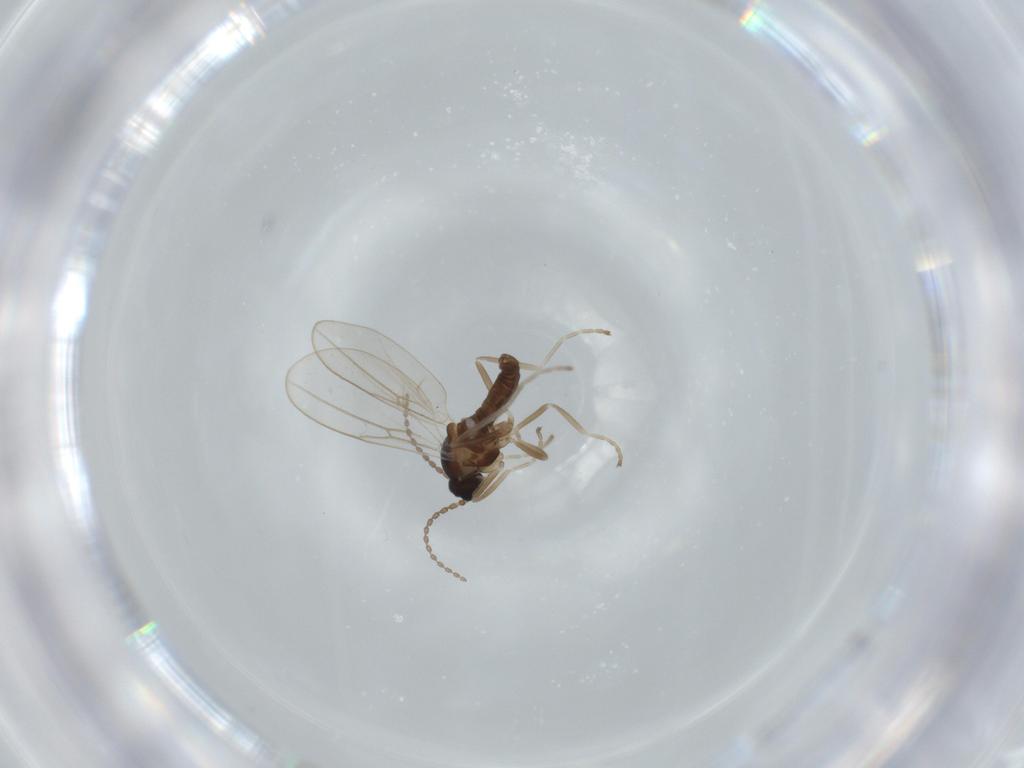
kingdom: Animalia
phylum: Arthropoda
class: Insecta
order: Diptera
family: Cecidomyiidae
